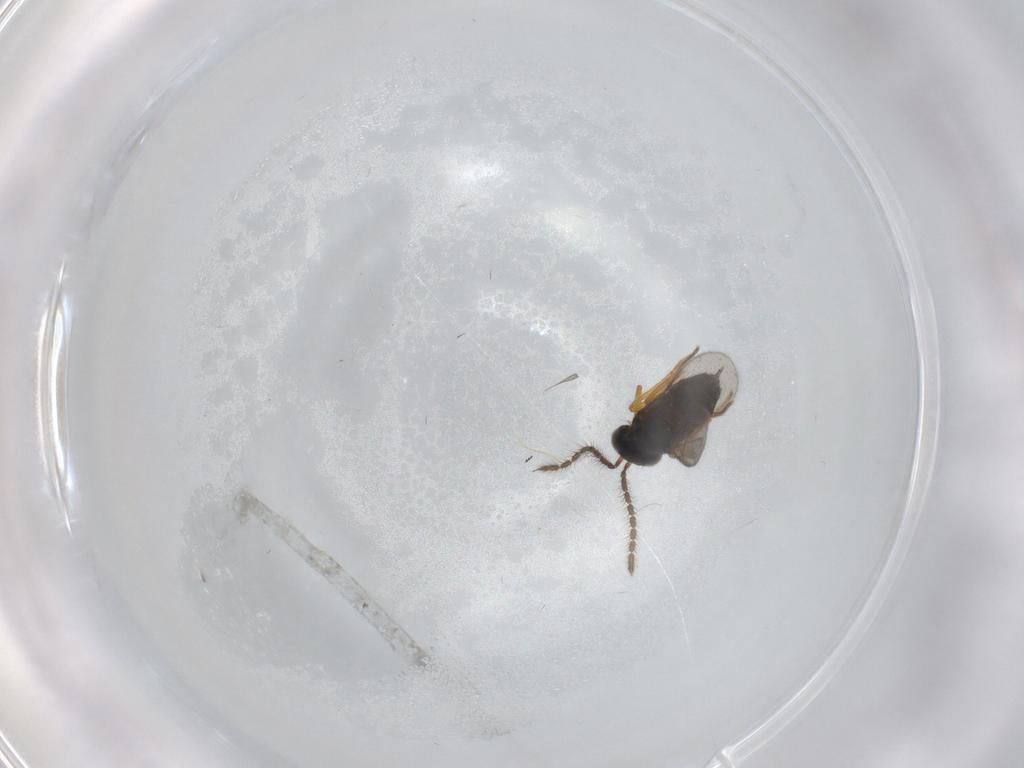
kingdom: Animalia
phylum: Arthropoda
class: Insecta
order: Hymenoptera
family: Scelionidae
